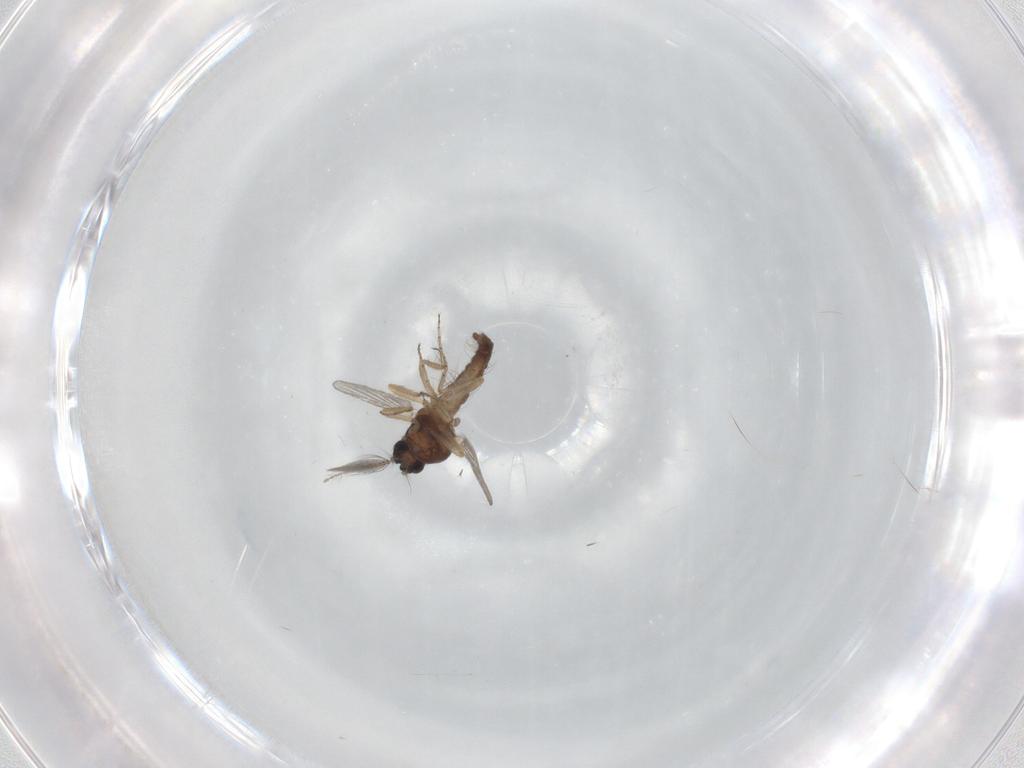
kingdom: Animalia
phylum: Arthropoda
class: Insecta
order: Diptera
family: Ceratopogonidae
